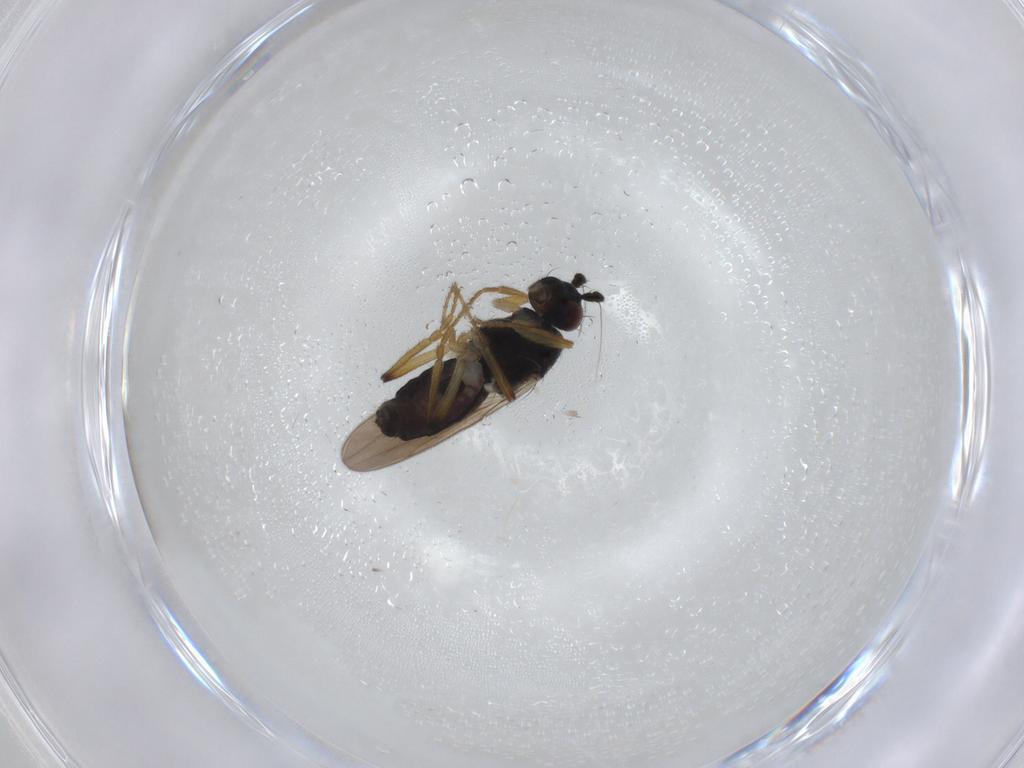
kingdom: Animalia
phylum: Arthropoda
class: Insecta
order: Diptera
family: Sphaeroceridae
